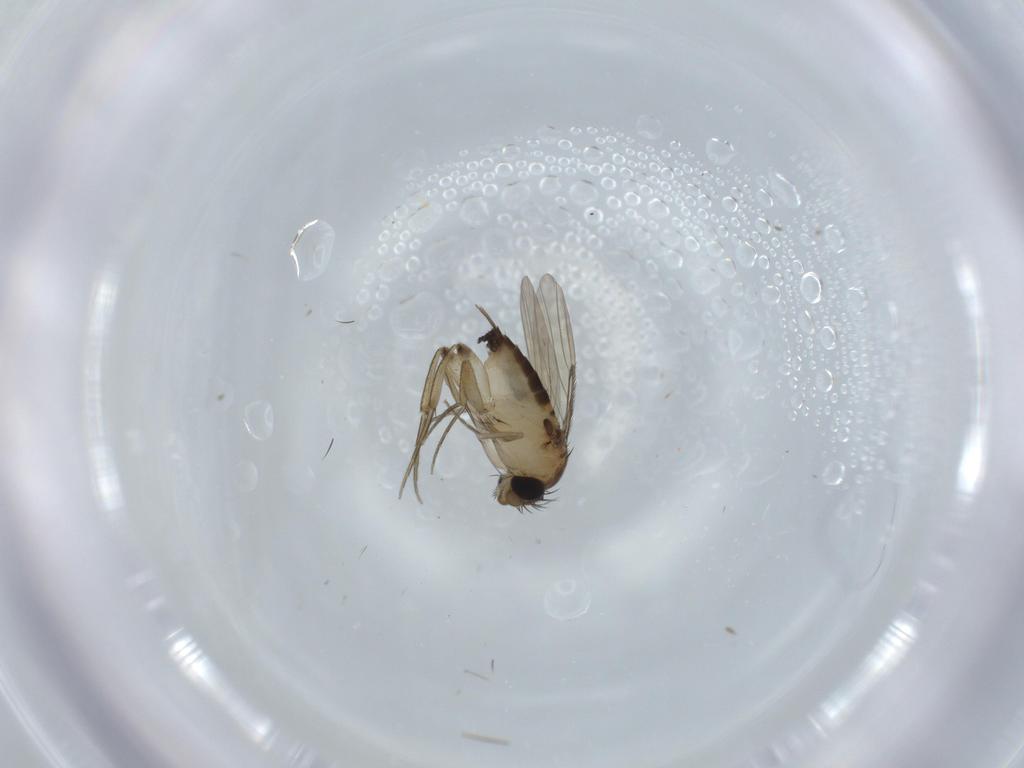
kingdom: Animalia
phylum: Arthropoda
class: Insecta
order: Diptera
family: Phoridae
